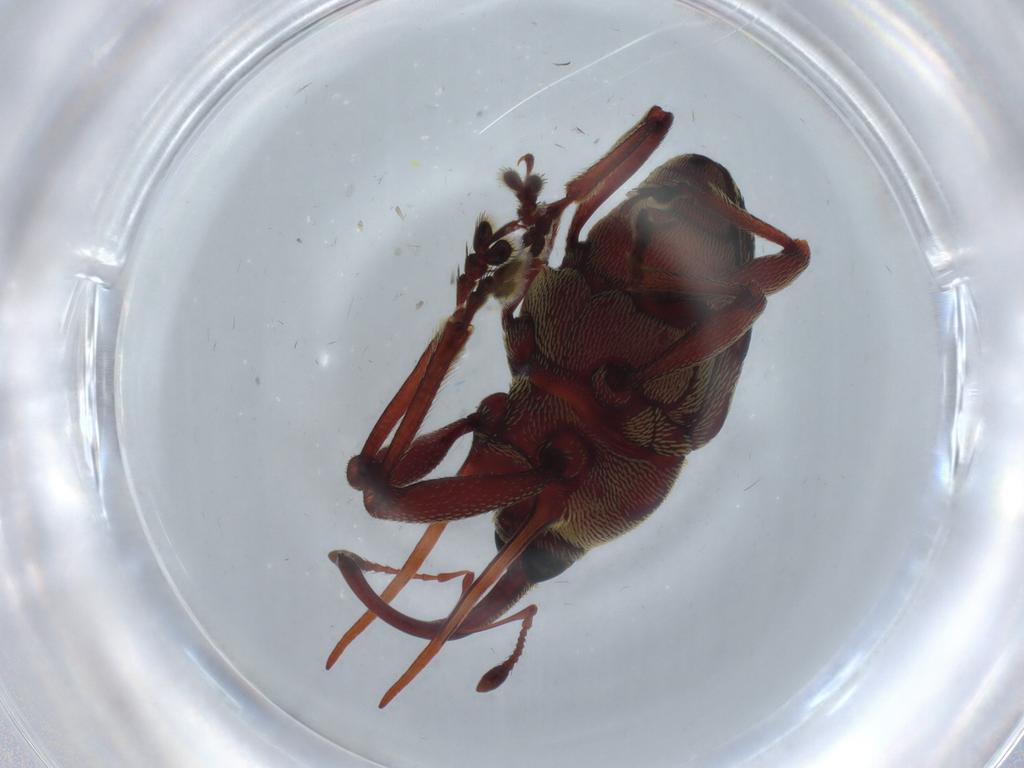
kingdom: Animalia
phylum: Arthropoda
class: Insecta
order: Coleoptera
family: Curculionidae
